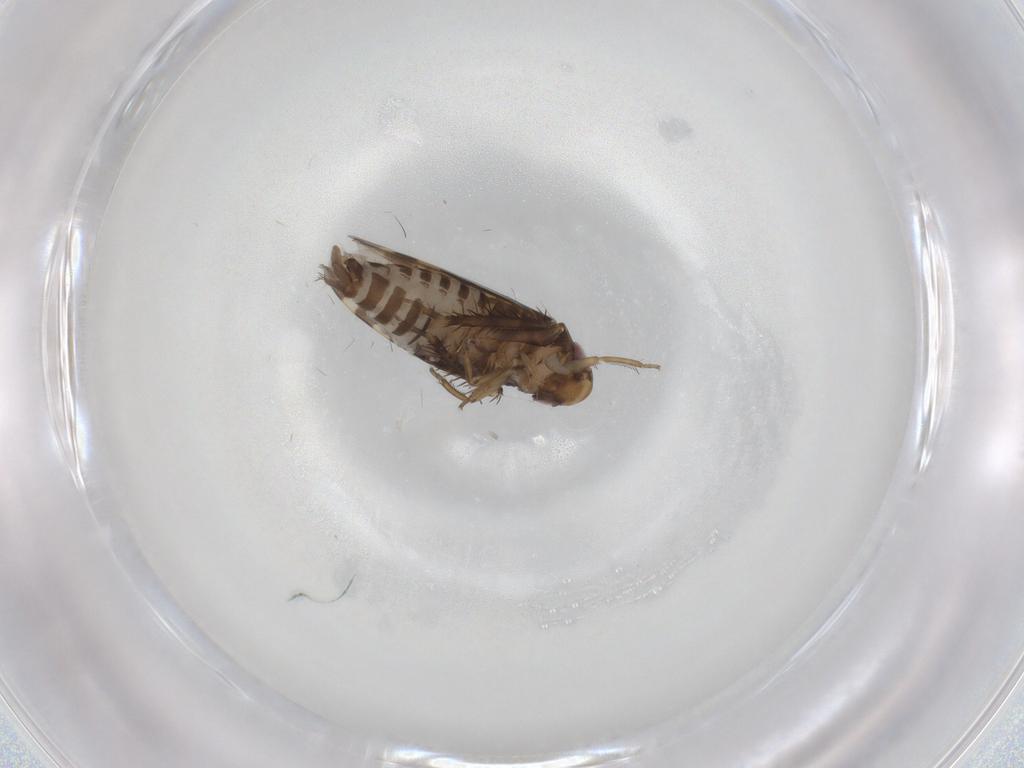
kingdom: Animalia
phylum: Arthropoda
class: Insecta
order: Hemiptera
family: Cicadellidae
